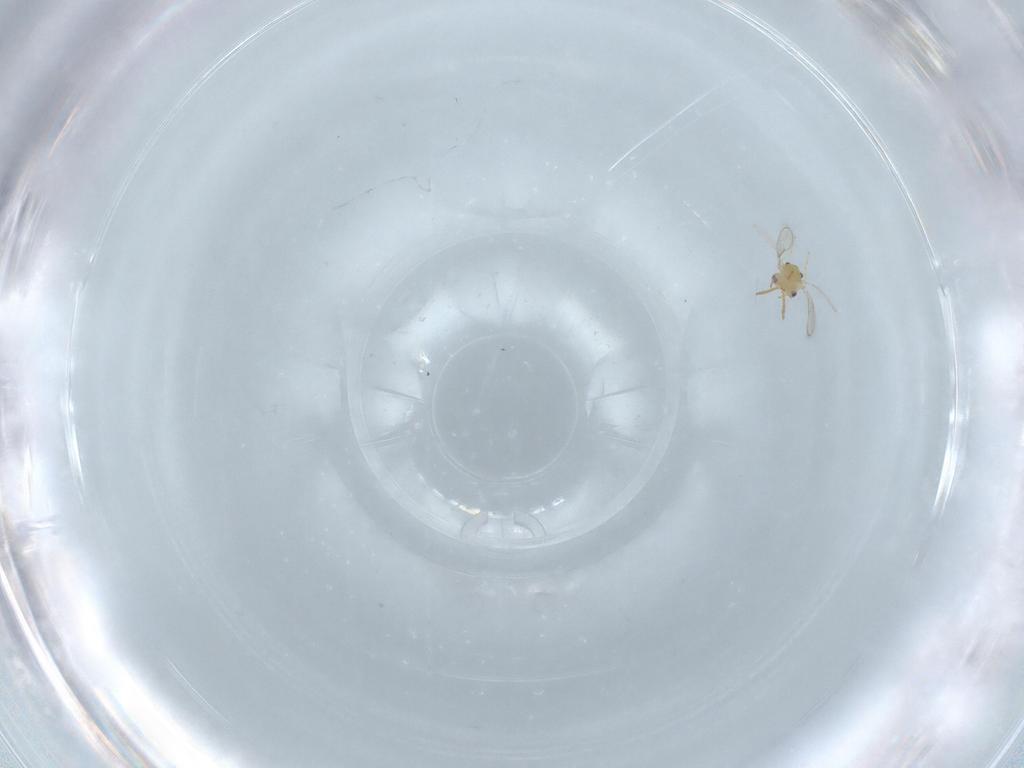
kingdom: Animalia
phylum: Arthropoda
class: Insecta
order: Hymenoptera
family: Aphelinidae
